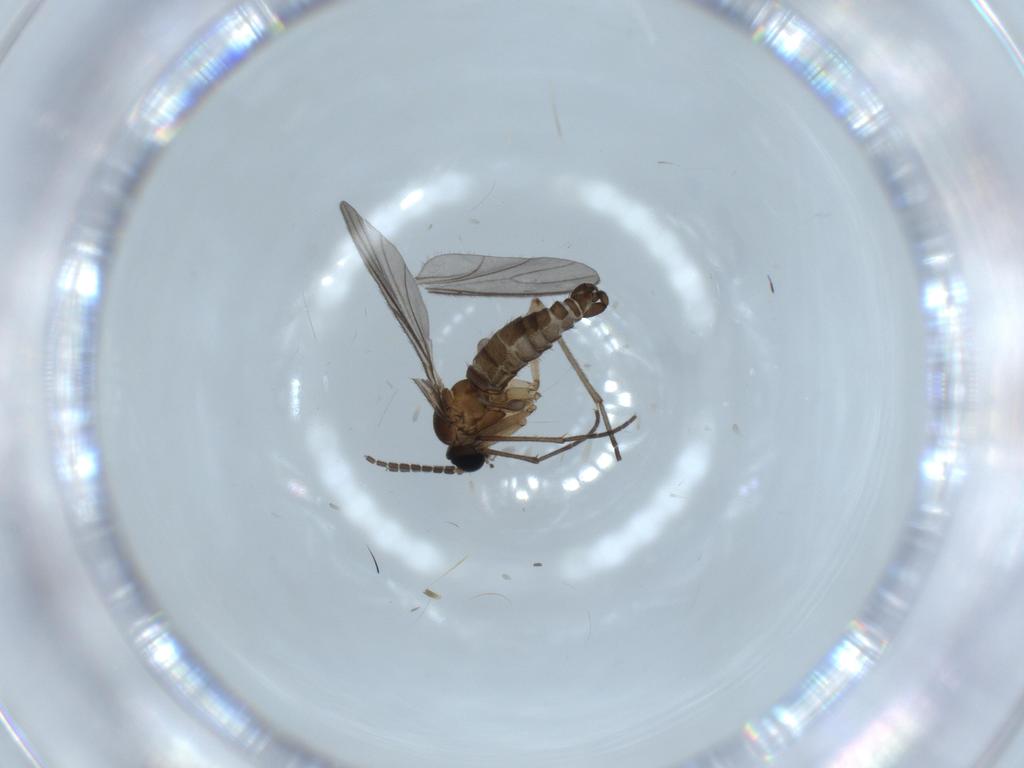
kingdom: Animalia
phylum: Arthropoda
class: Insecta
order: Diptera
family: Sciaridae
